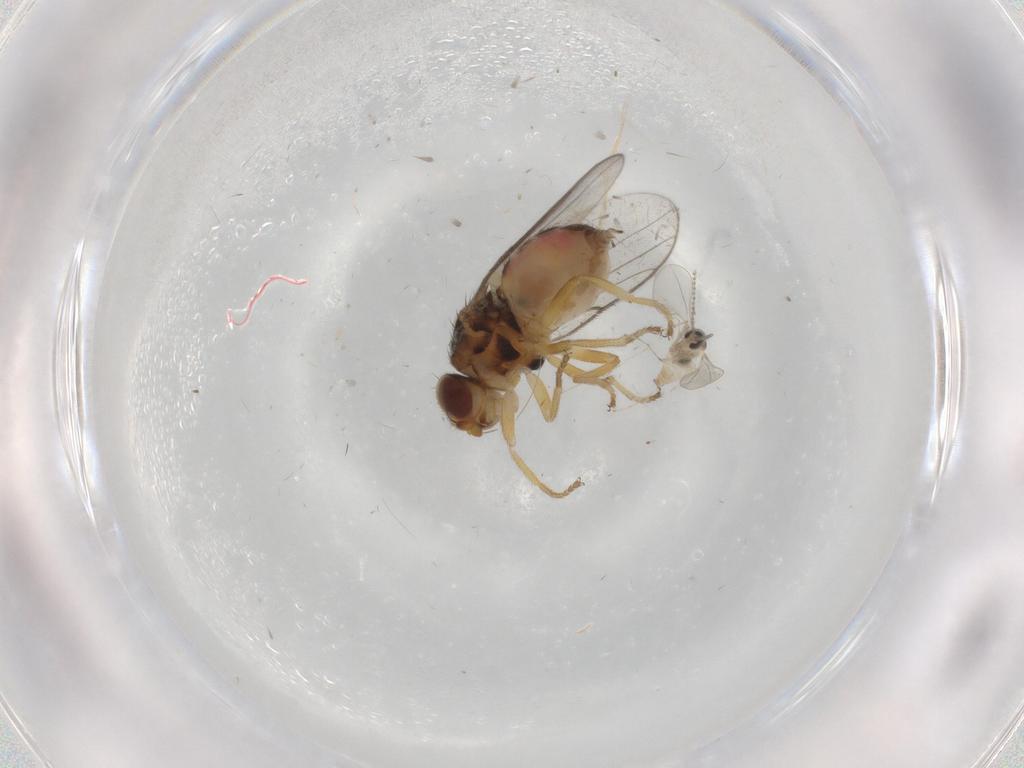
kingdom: Animalia
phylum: Arthropoda
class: Insecta
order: Diptera
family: Chloropidae
